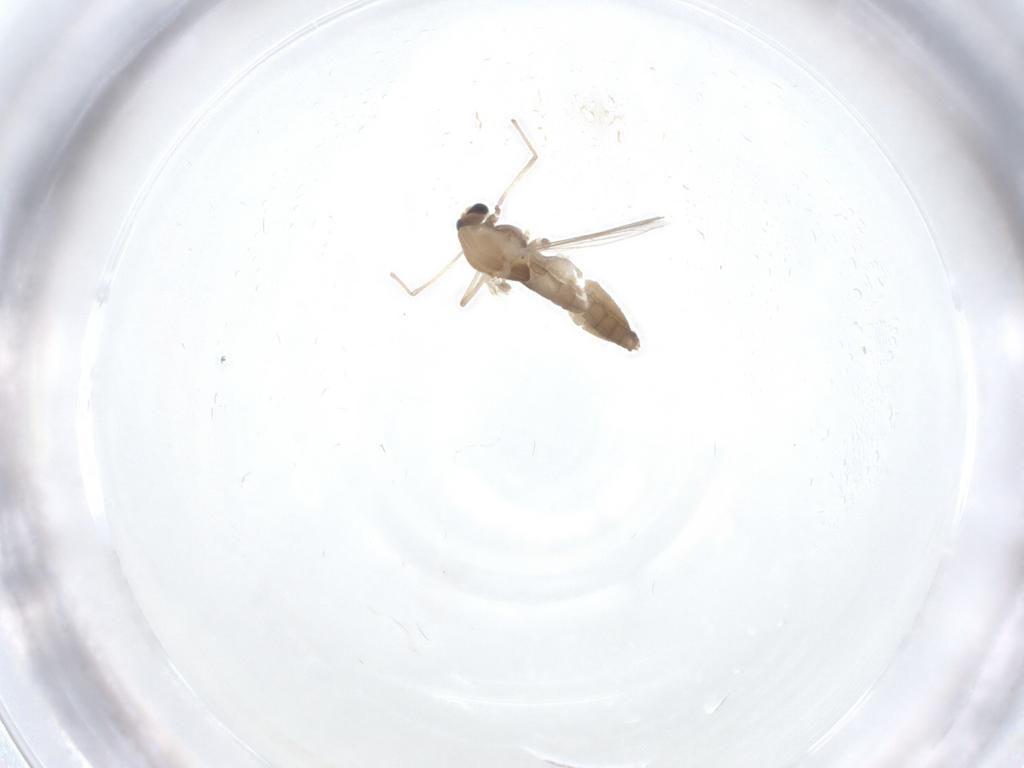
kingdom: Animalia
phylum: Arthropoda
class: Insecta
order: Diptera
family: Chironomidae
